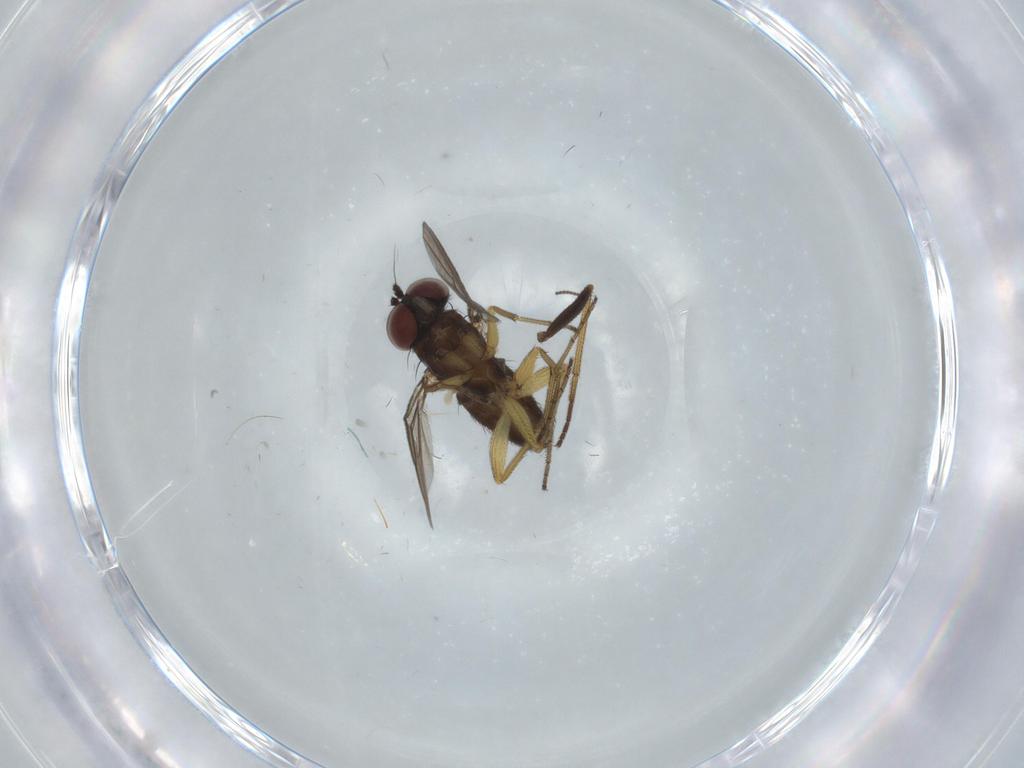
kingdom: Animalia
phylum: Arthropoda
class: Insecta
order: Diptera
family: Dolichopodidae
